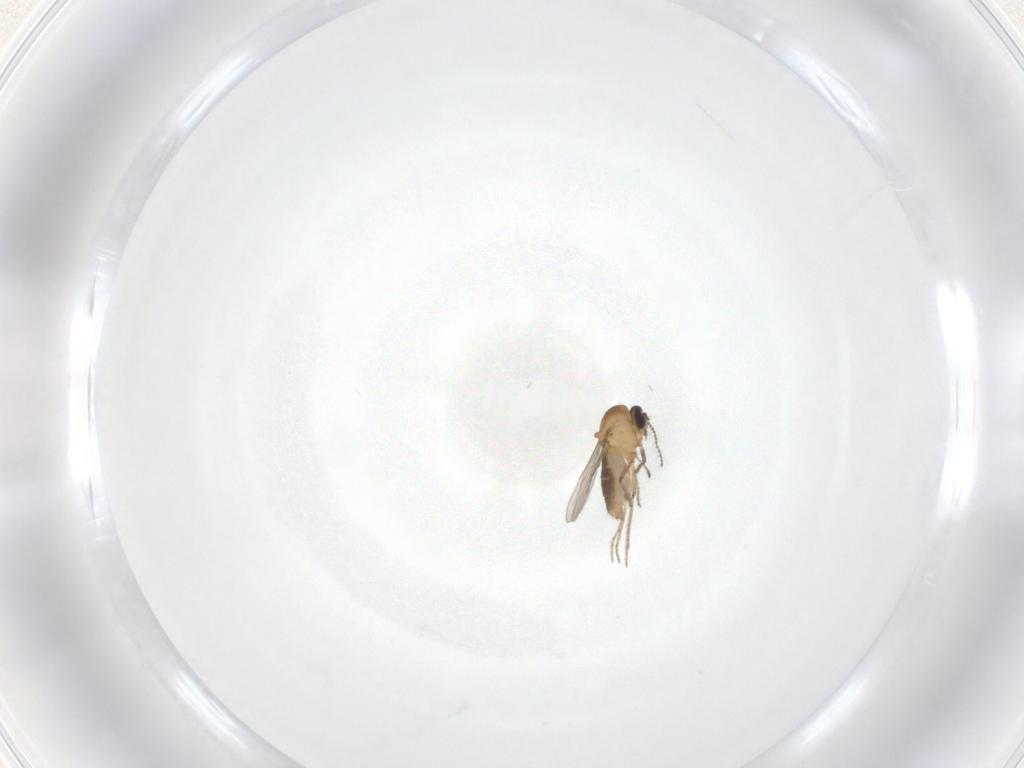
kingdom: Animalia
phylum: Arthropoda
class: Insecta
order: Diptera
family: Ceratopogonidae
